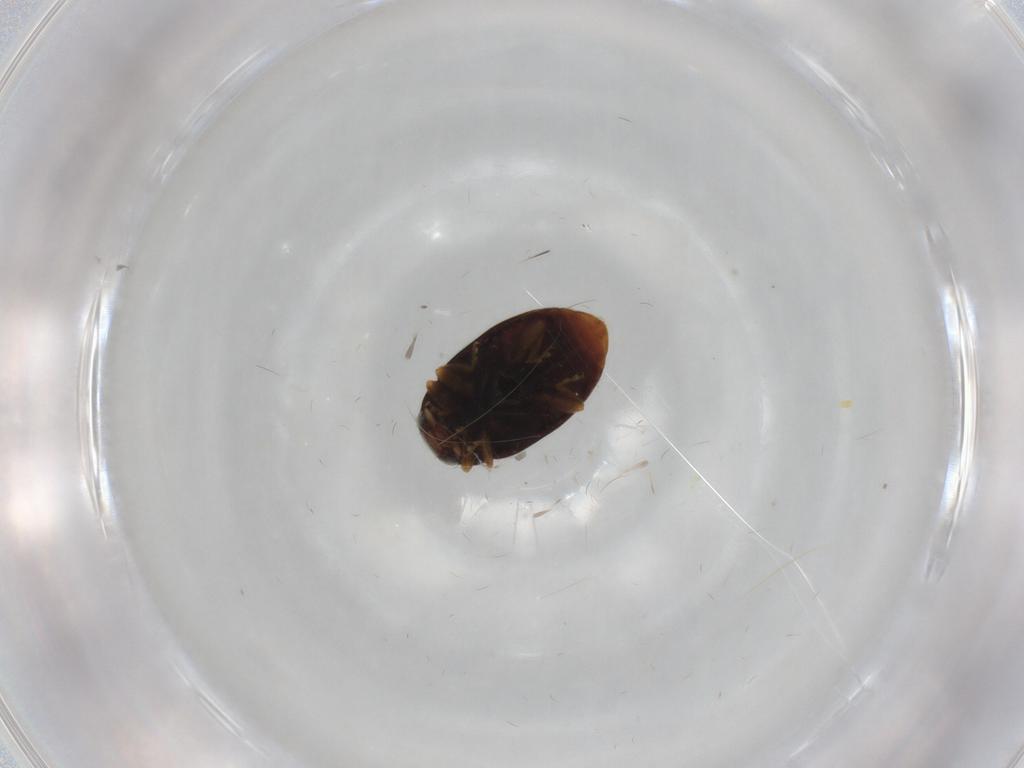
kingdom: Animalia
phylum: Arthropoda
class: Insecta
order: Coleoptera
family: Coccinellidae
